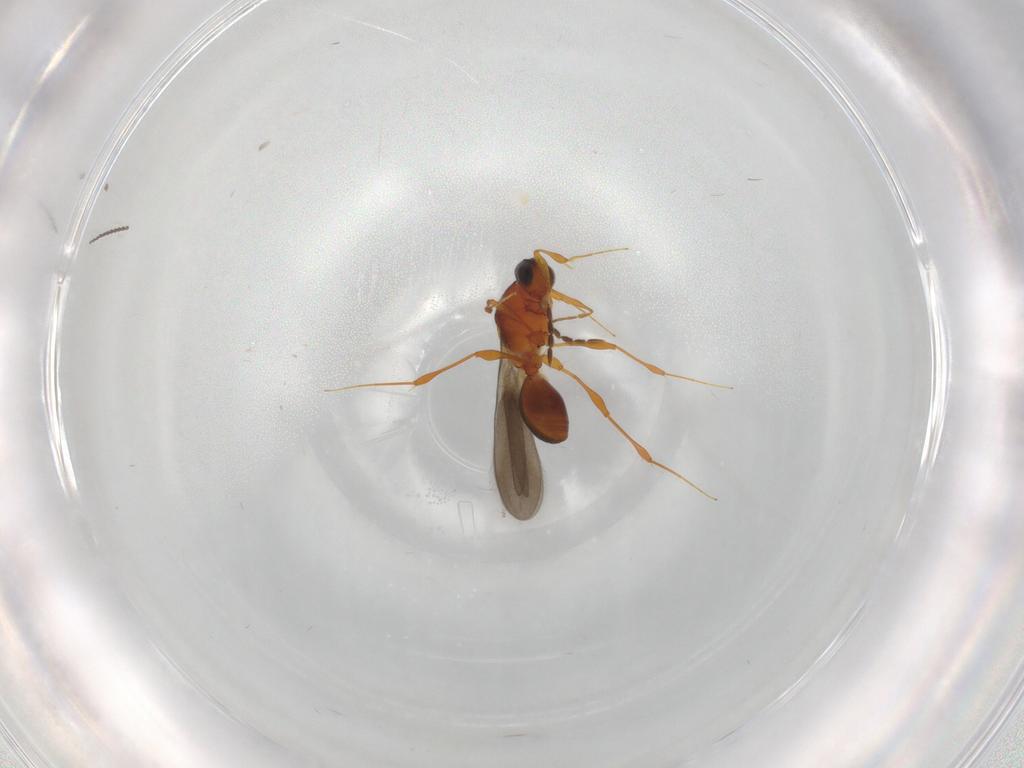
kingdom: Animalia
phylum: Arthropoda
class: Insecta
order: Hymenoptera
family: Platygastridae
